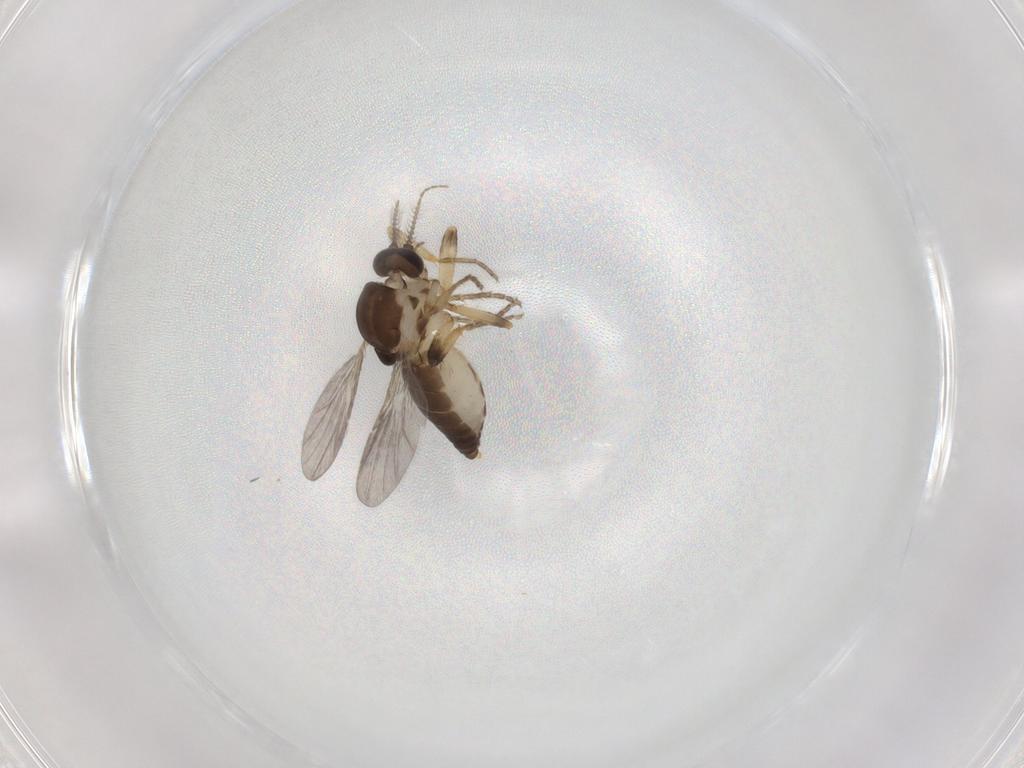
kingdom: Animalia
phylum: Arthropoda
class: Insecta
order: Diptera
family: Ceratopogonidae
